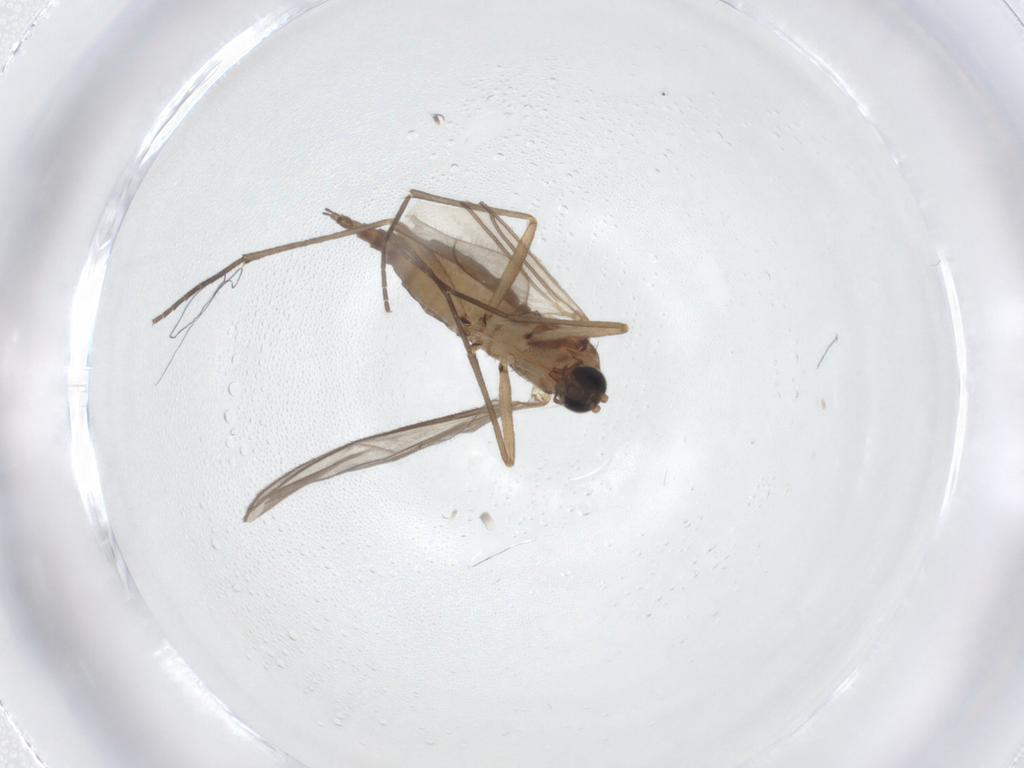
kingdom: Animalia
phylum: Arthropoda
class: Insecta
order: Diptera
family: Sciaridae
